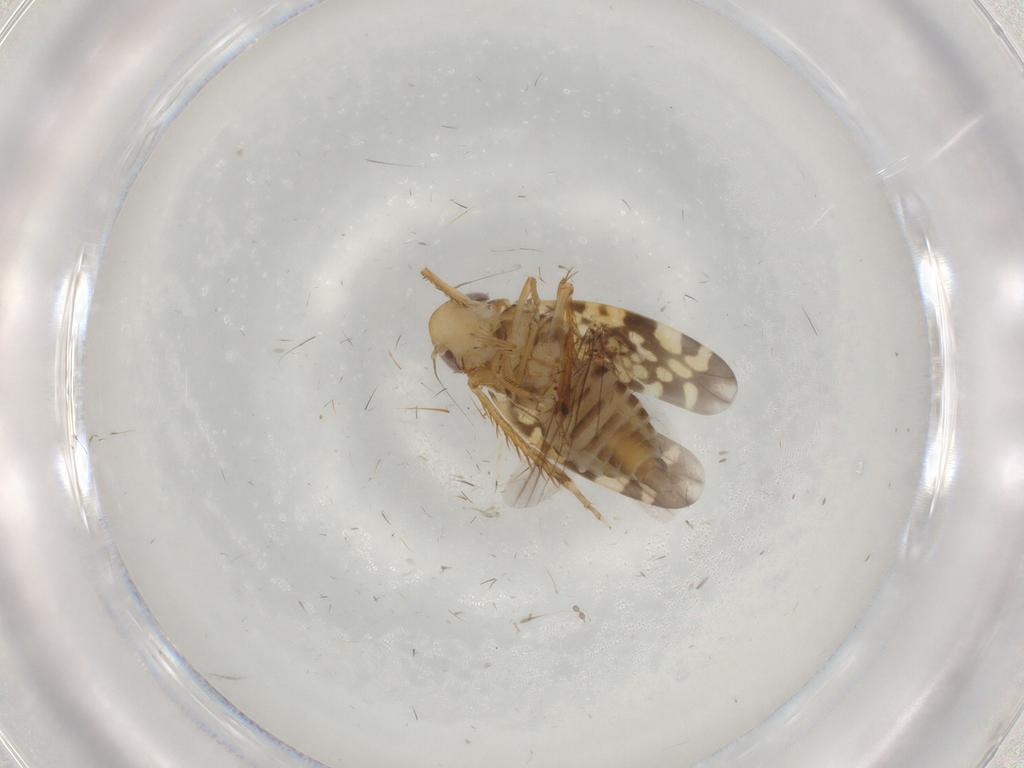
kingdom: Animalia
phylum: Arthropoda
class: Insecta
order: Hemiptera
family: Cicadellidae
